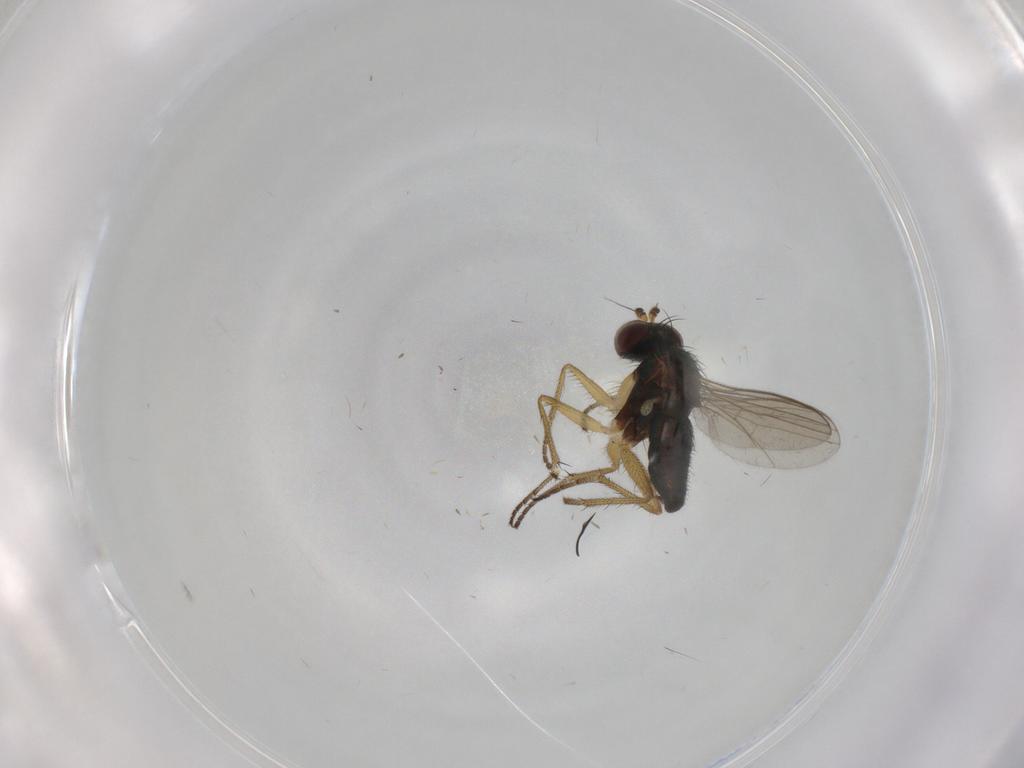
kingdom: Animalia
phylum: Arthropoda
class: Insecta
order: Diptera
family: Dolichopodidae
